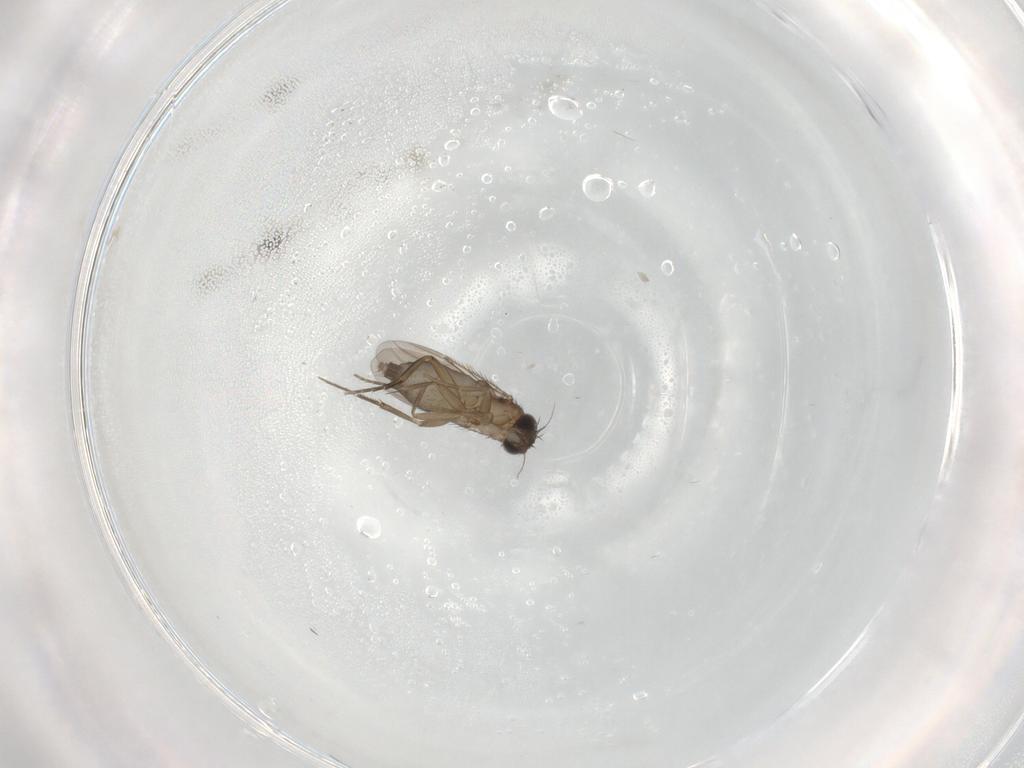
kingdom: Animalia
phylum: Arthropoda
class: Insecta
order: Diptera
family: Phoridae
